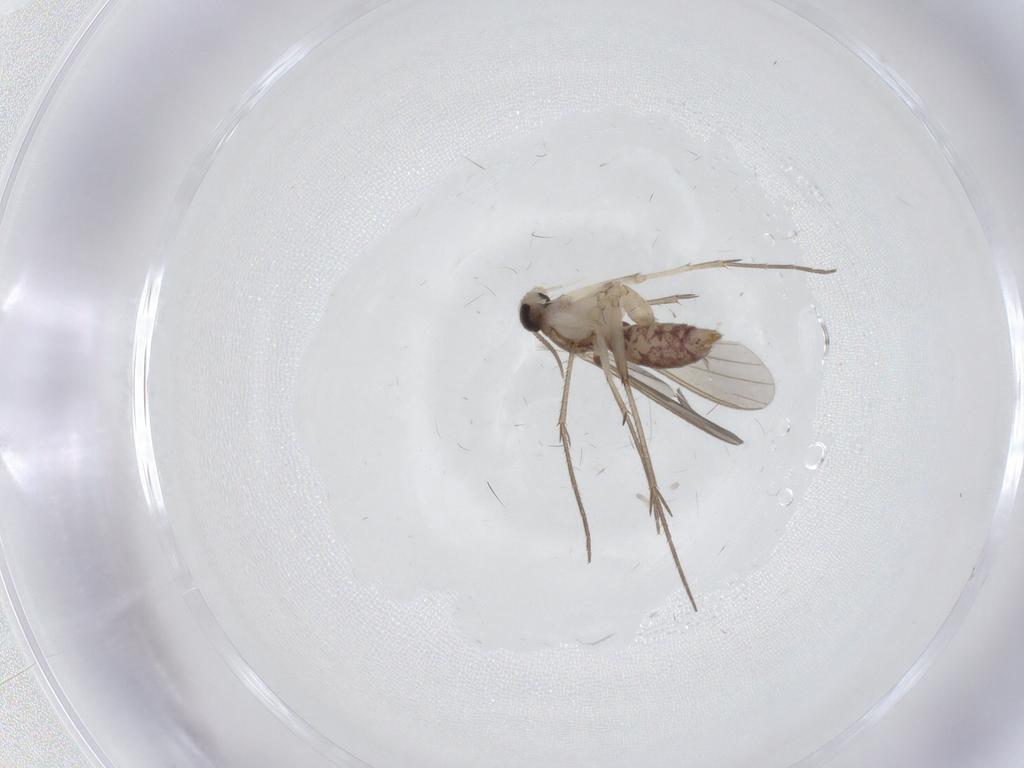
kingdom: Animalia
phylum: Arthropoda
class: Insecta
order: Diptera
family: Mycetophilidae
